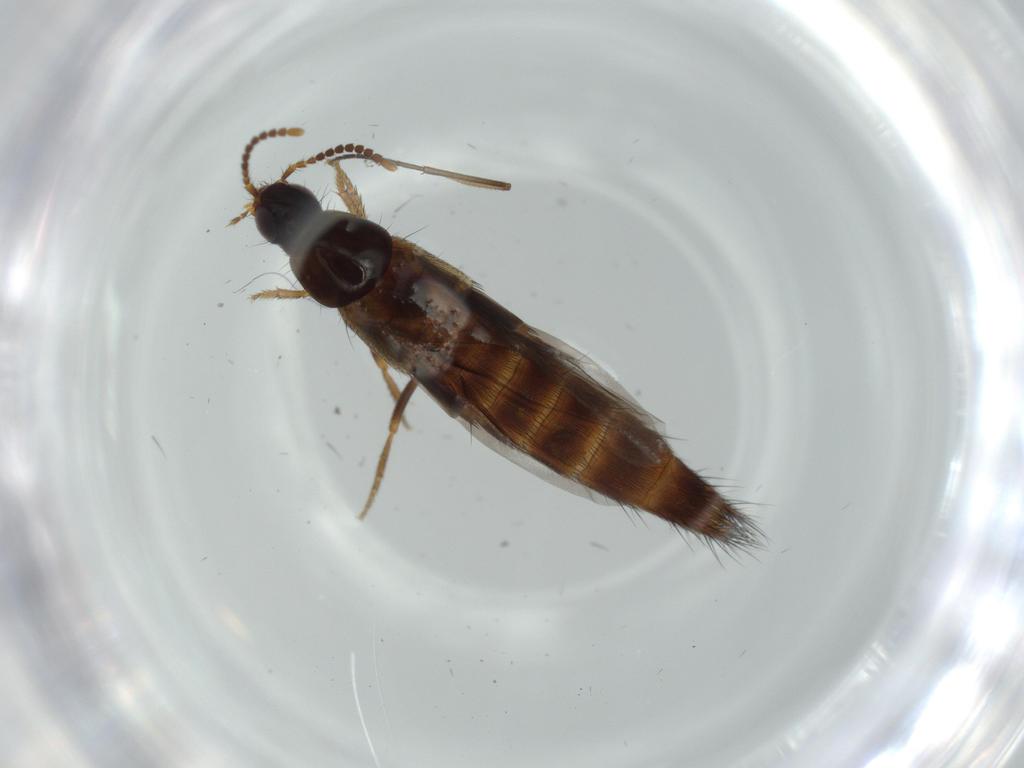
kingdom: Animalia
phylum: Arthropoda
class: Insecta
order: Coleoptera
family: Staphylinidae
